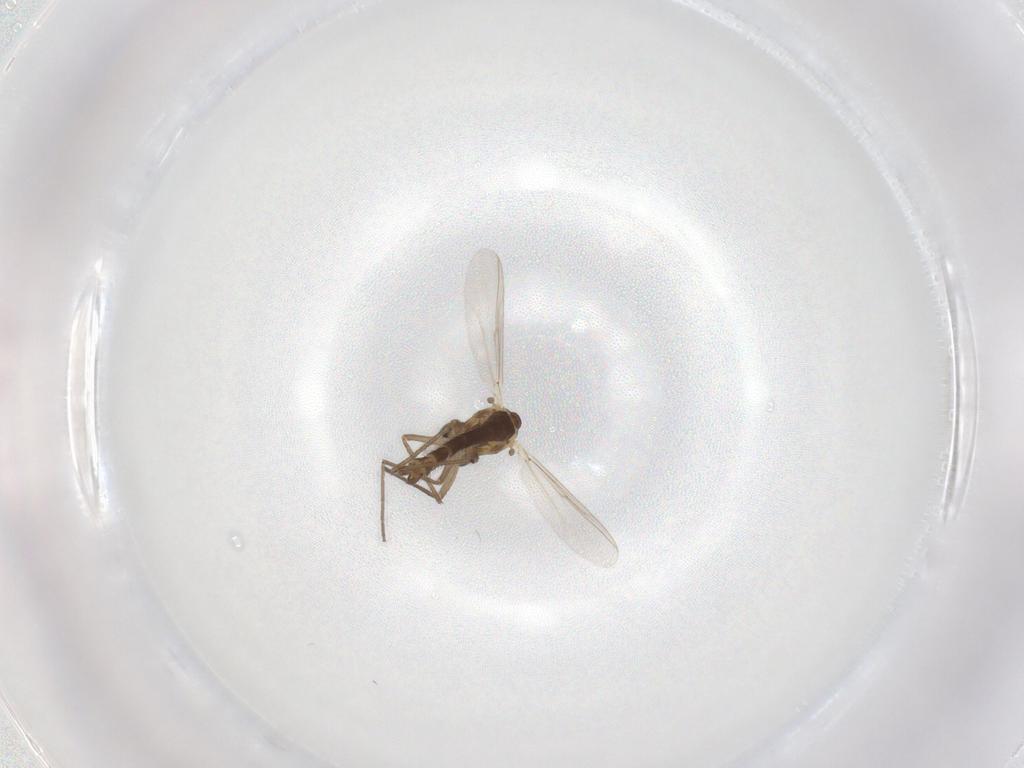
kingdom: Animalia
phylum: Arthropoda
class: Insecta
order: Diptera
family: Chironomidae
